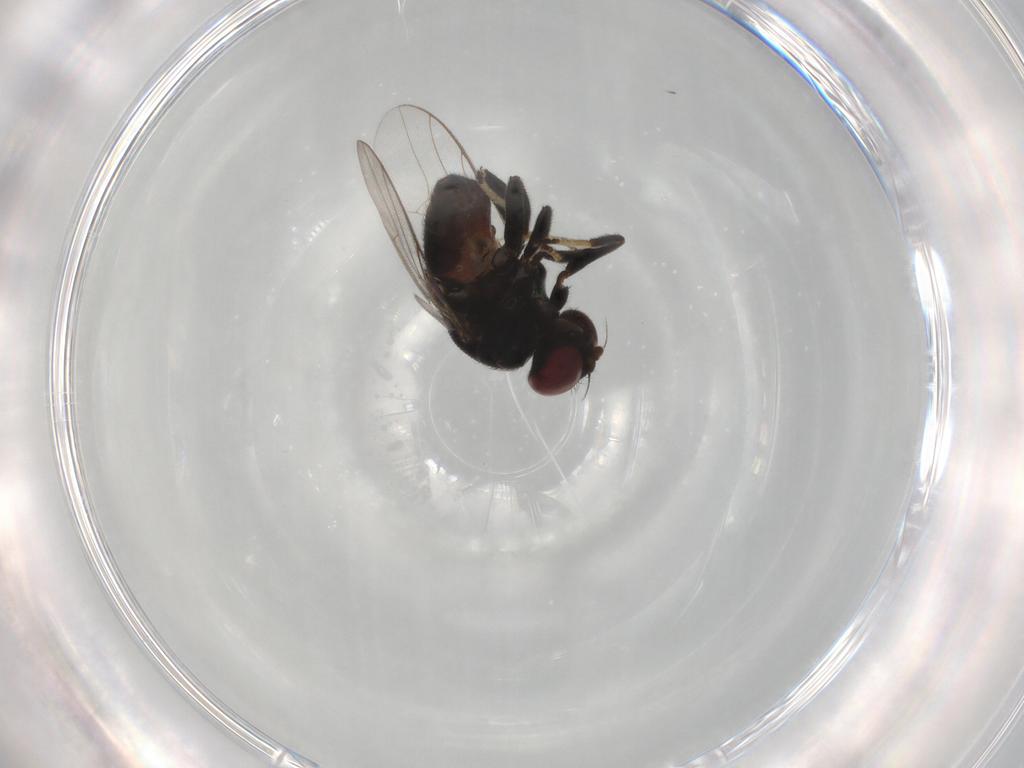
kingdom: Animalia
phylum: Arthropoda
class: Insecta
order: Diptera
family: Chloropidae
